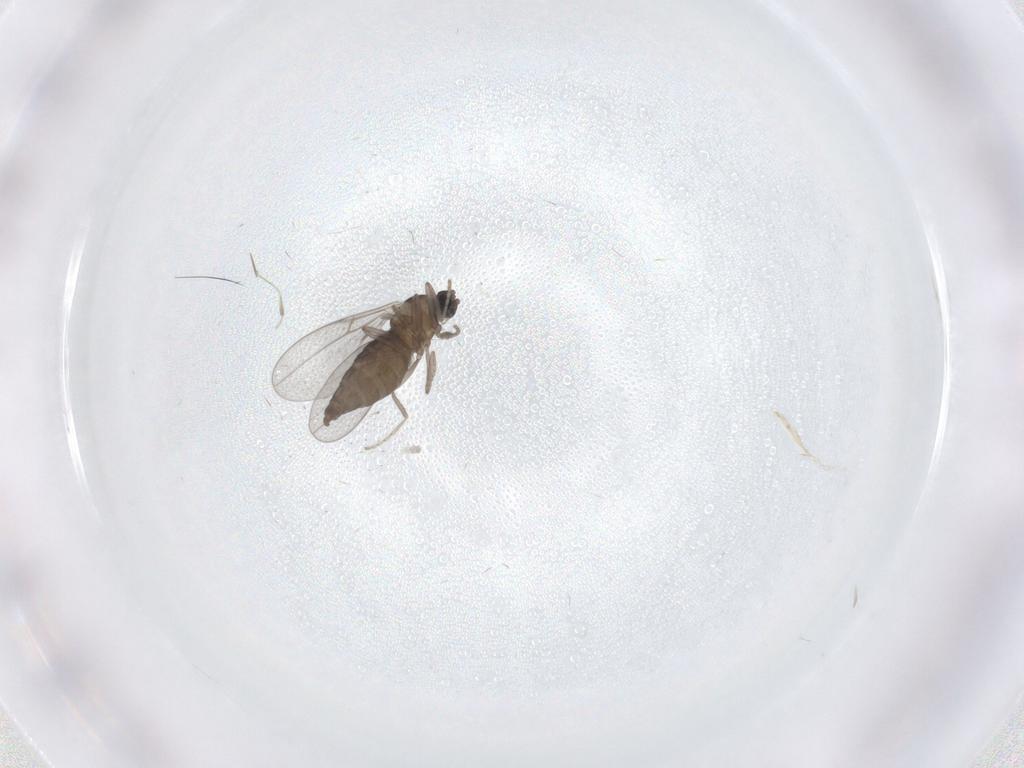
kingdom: Animalia
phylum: Arthropoda
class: Insecta
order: Diptera
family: Cecidomyiidae
